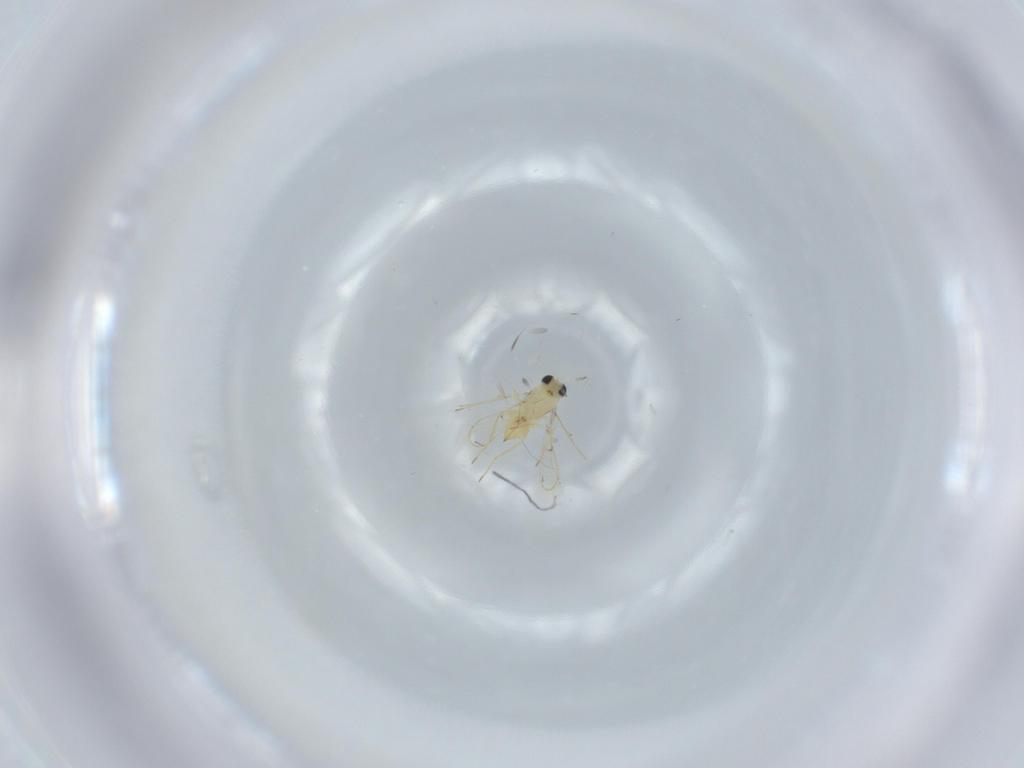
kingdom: Animalia
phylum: Arthropoda
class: Insecta
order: Hymenoptera
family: Trichogrammatidae
